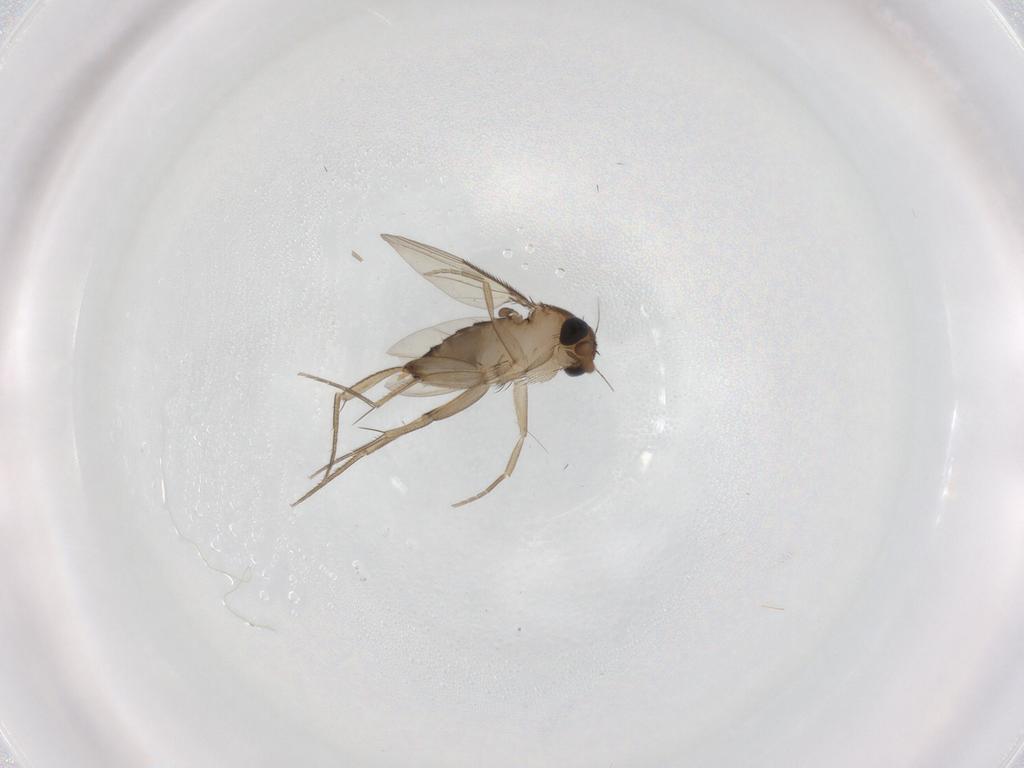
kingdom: Animalia
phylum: Arthropoda
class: Insecta
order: Diptera
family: Phoridae
